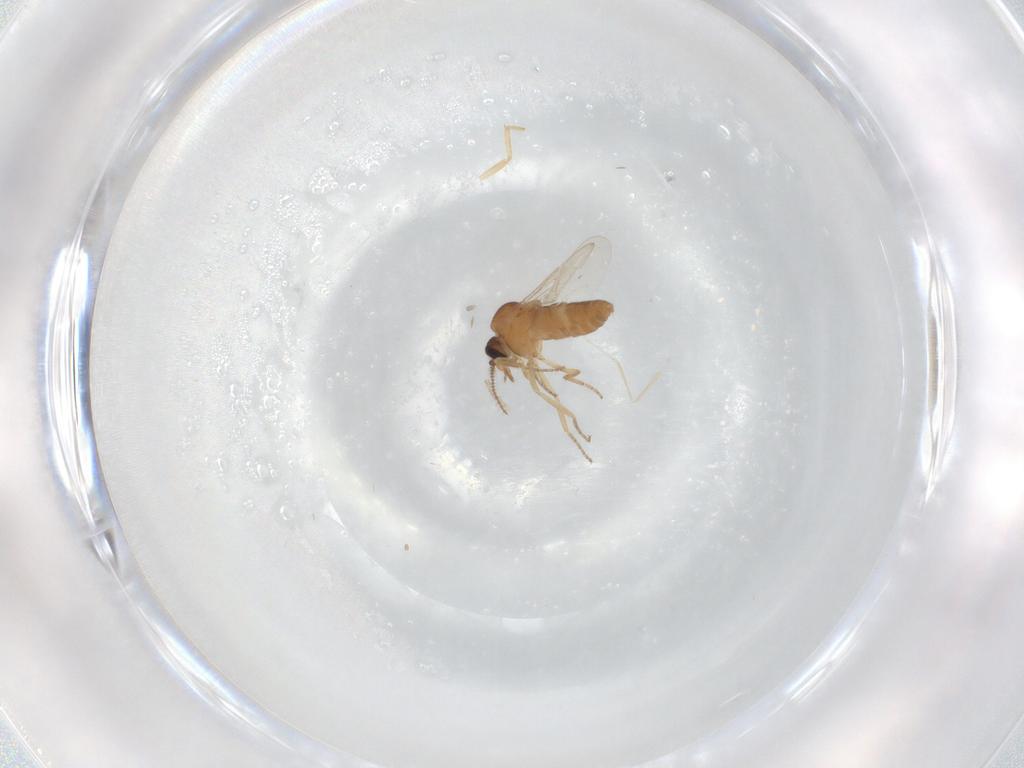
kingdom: Animalia
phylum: Arthropoda
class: Insecta
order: Diptera
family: Ceratopogonidae
